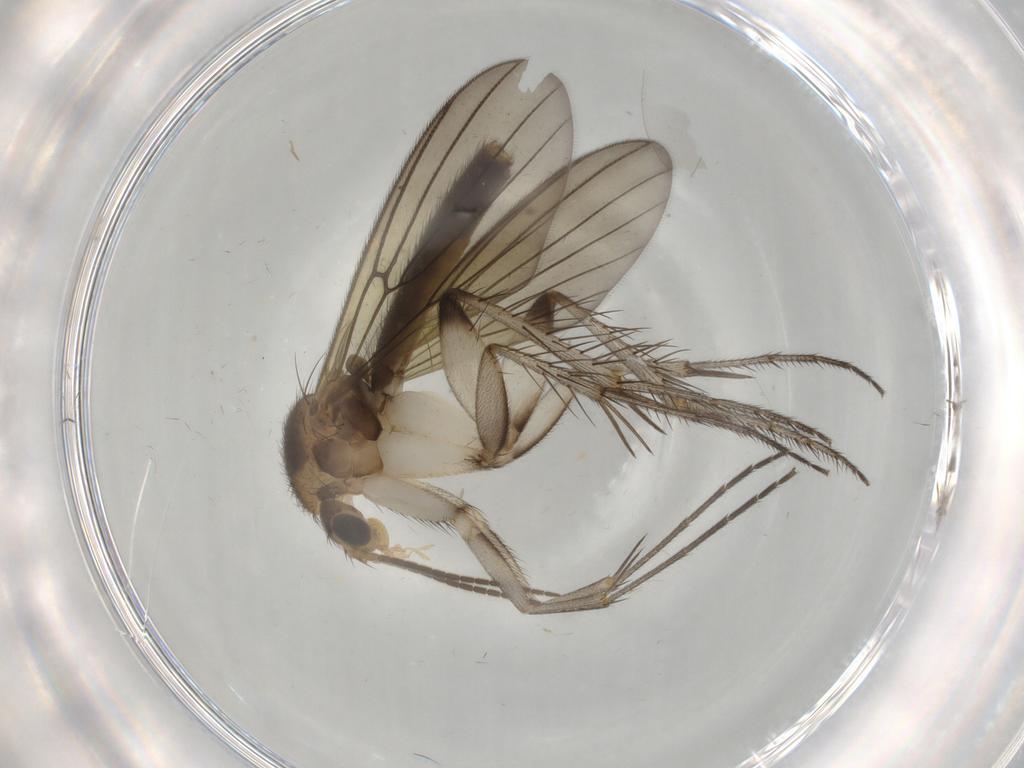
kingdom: Animalia
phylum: Arthropoda
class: Insecta
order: Diptera
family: Mycetophilidae
